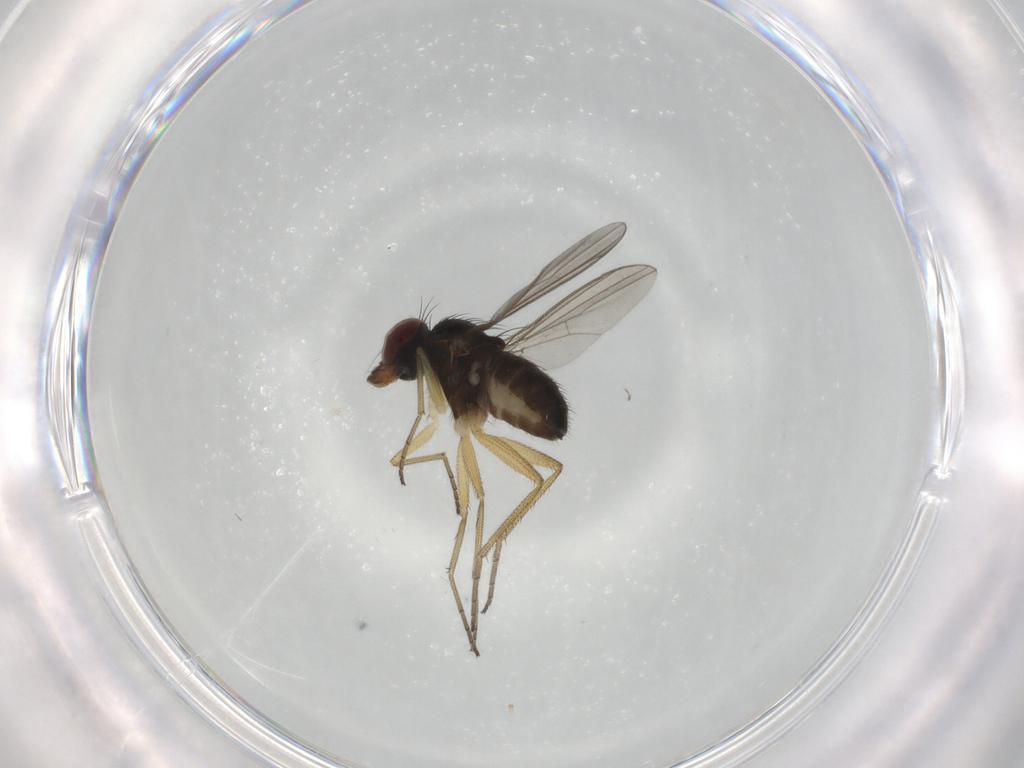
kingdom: Animalia
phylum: Arthropoda
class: Insecta
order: Diptera
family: Dolichopodidae
